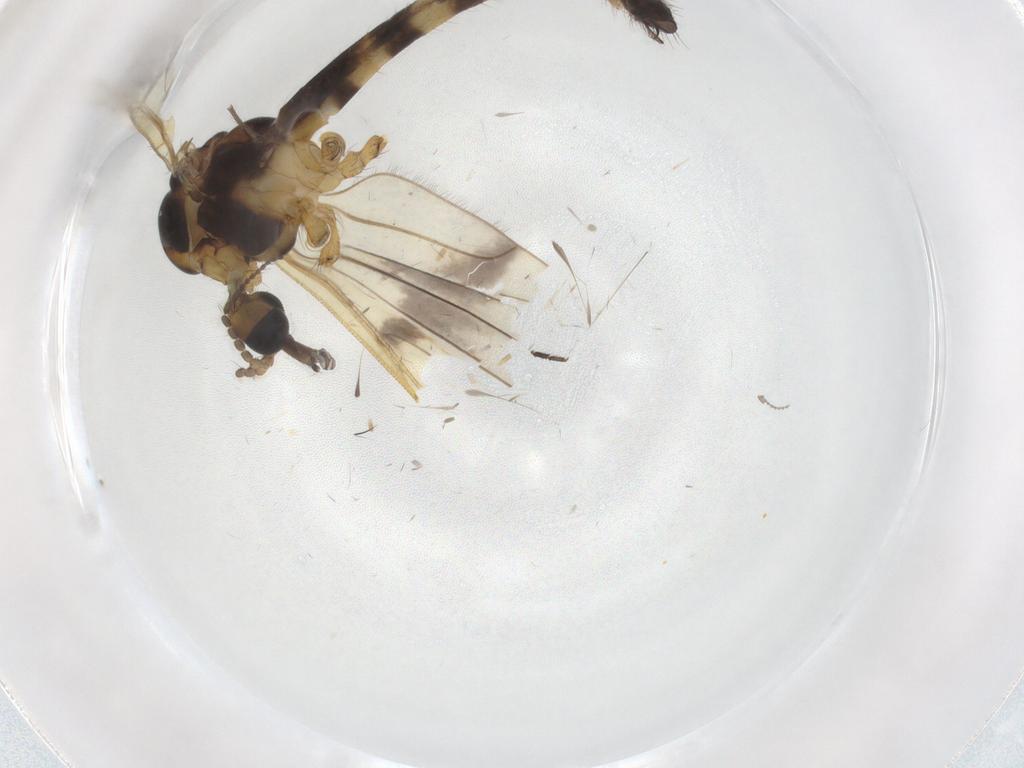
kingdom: Animalia
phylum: Arthropoda
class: Insecta
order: Diptera
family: Cecidomyiidae
